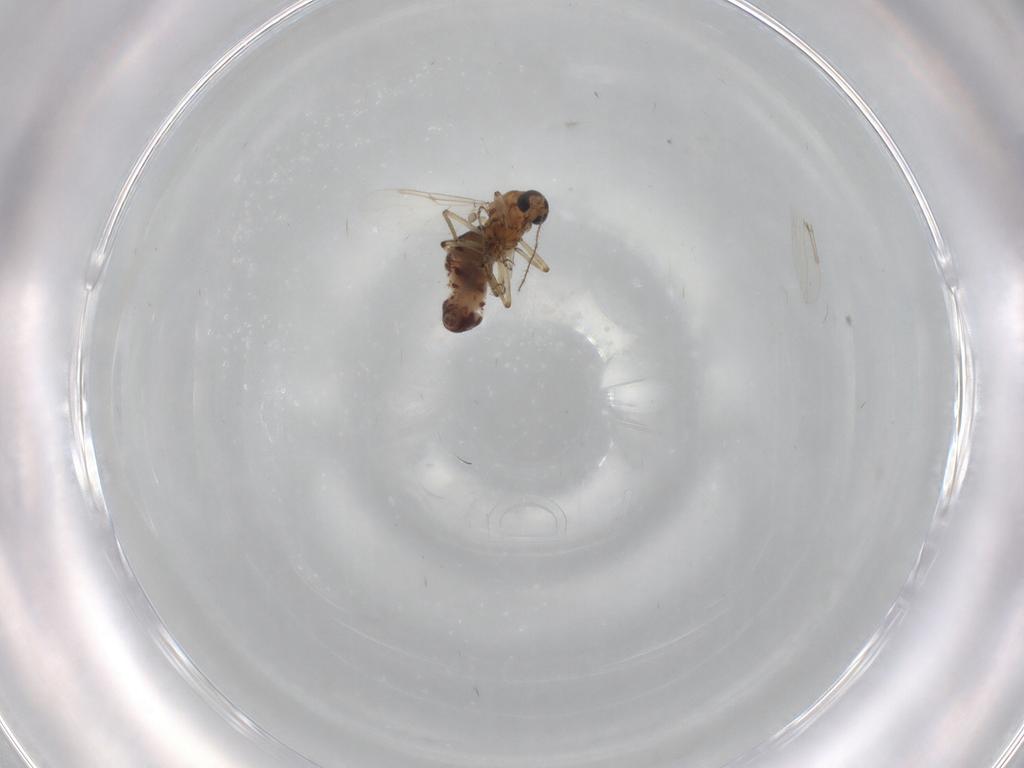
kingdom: Animalia
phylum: Arthropoda
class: Insecta
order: Diptera
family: Ceratopogonidae
